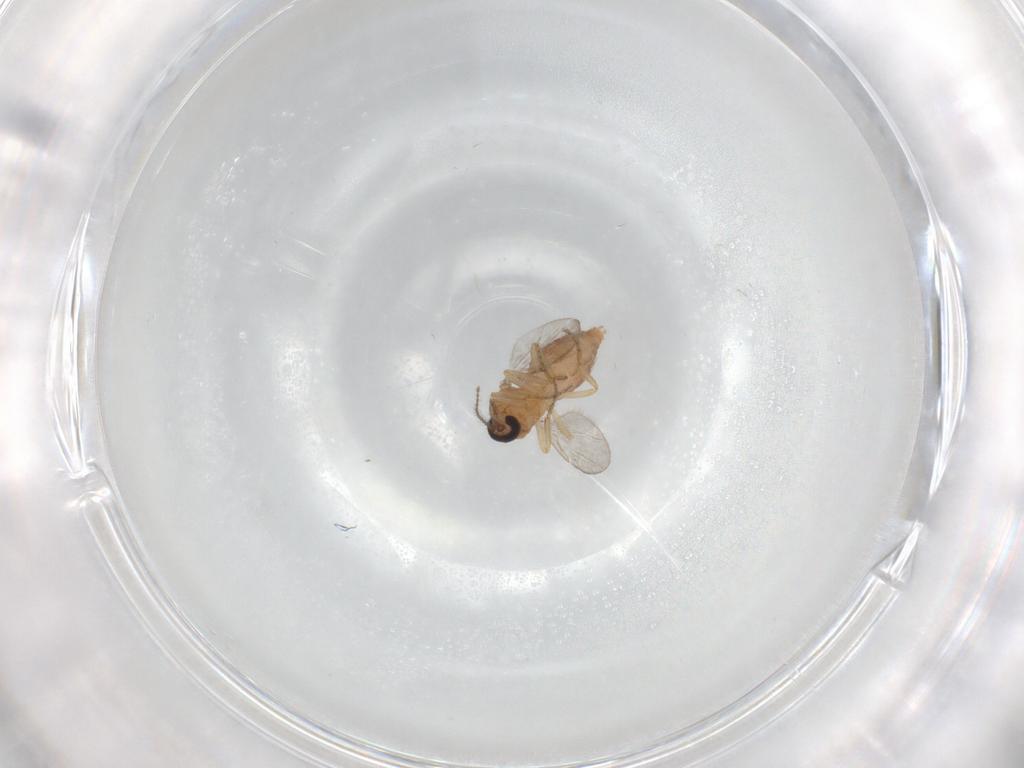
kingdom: Animalia
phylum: Arthropoda
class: Insecta
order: Diptera
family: Ceratopogonidae
